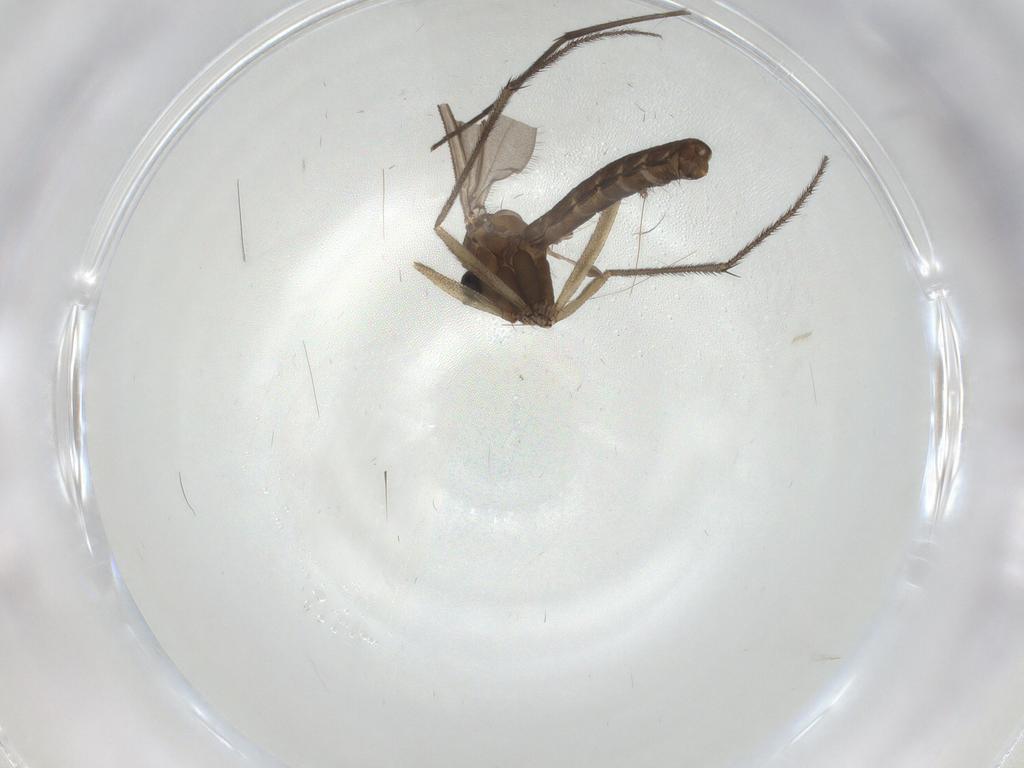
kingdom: Animalia
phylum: Arthropoda
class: Insecta
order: Diptera
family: Ditomyiidae
